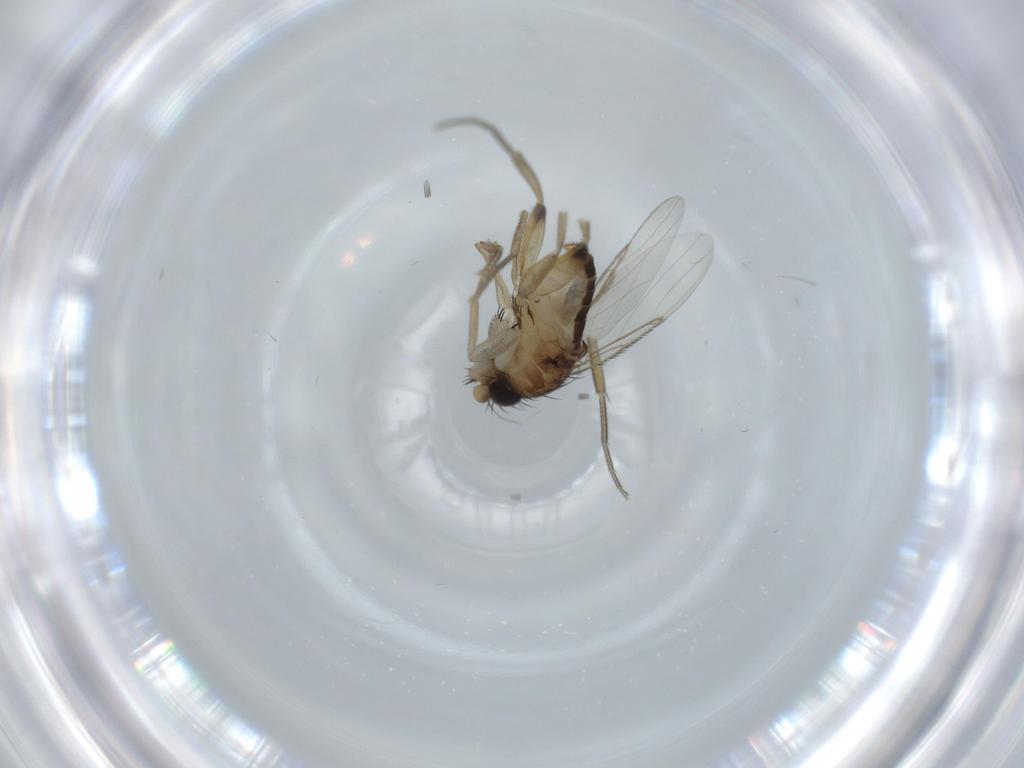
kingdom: Animalia
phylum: Arthropoda
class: Insecta
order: Diptera
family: Phoridae
